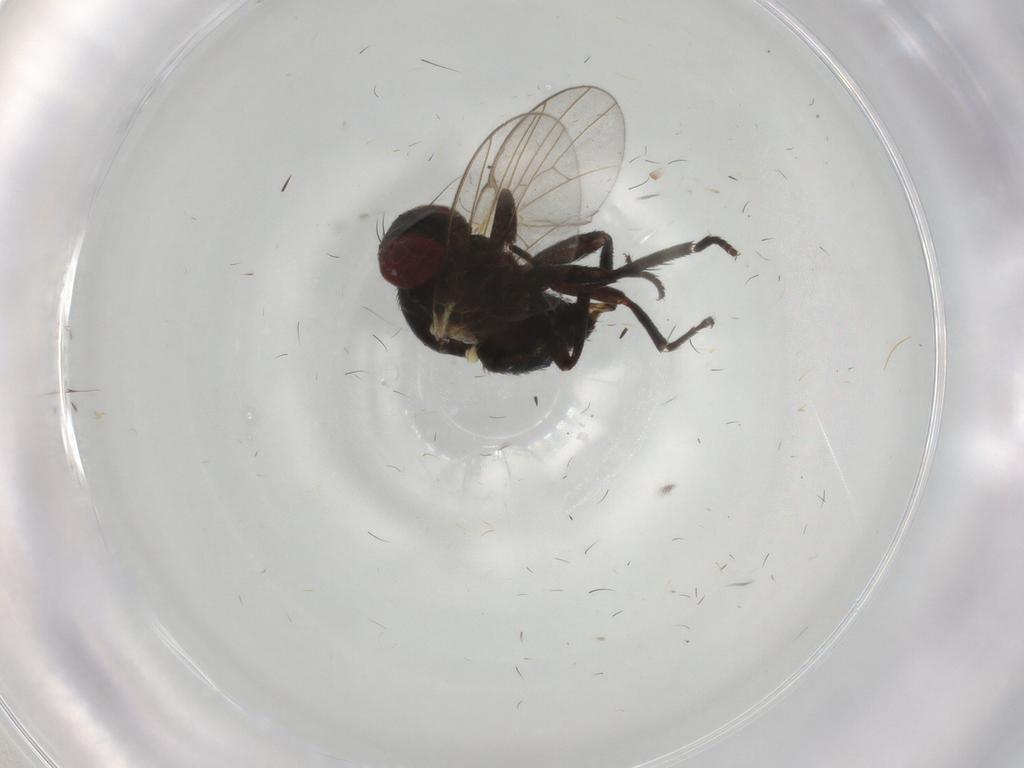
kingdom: Animalia
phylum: Arthropoda
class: Insecta
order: Diptera
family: Agromyzidae
